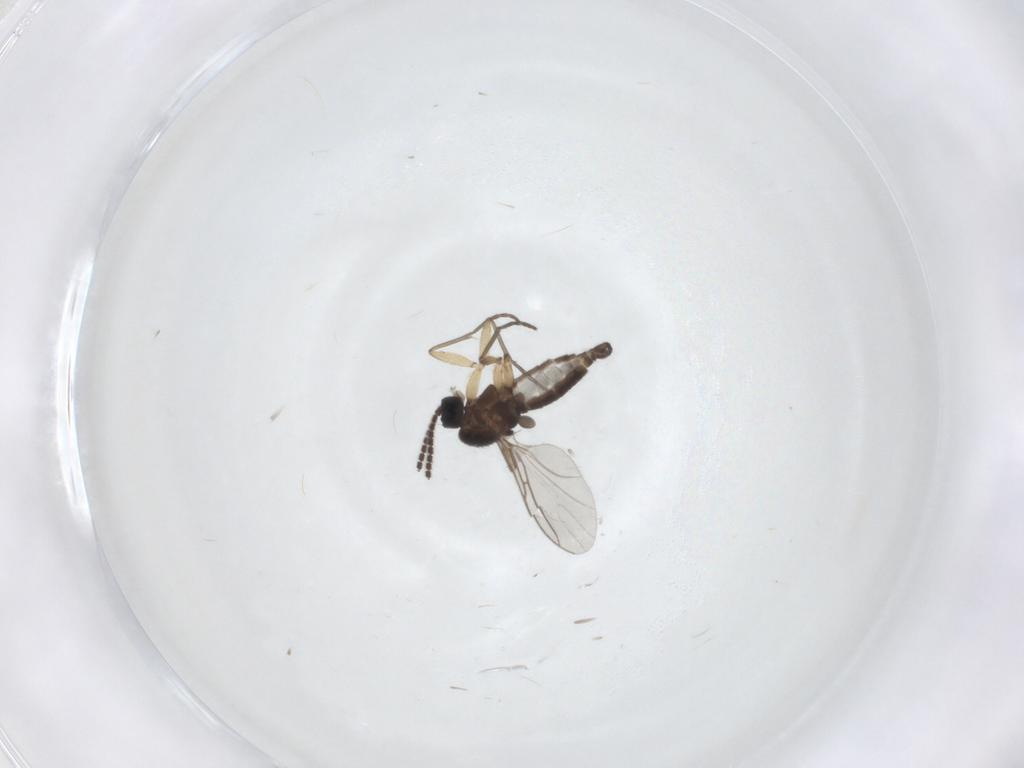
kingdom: Animalia
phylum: Arthropoda
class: Insecta
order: Diptera
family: Sciaridae
